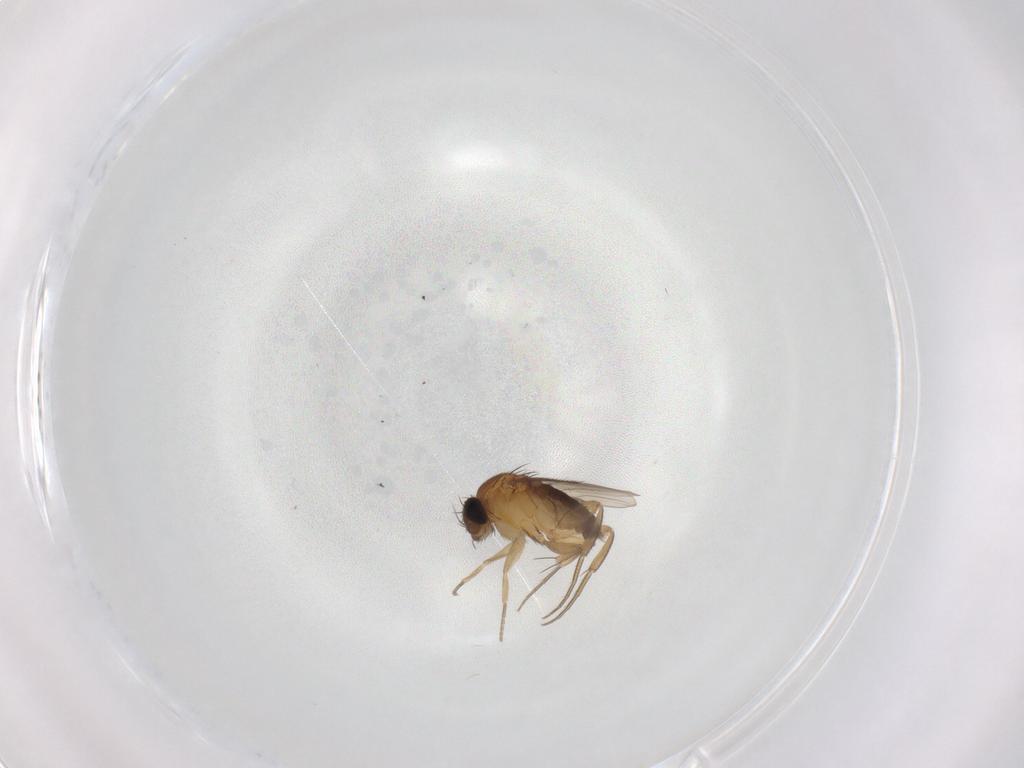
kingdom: Animalia
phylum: Arthropoda
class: Insecta
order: Diptera
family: Phoridae
